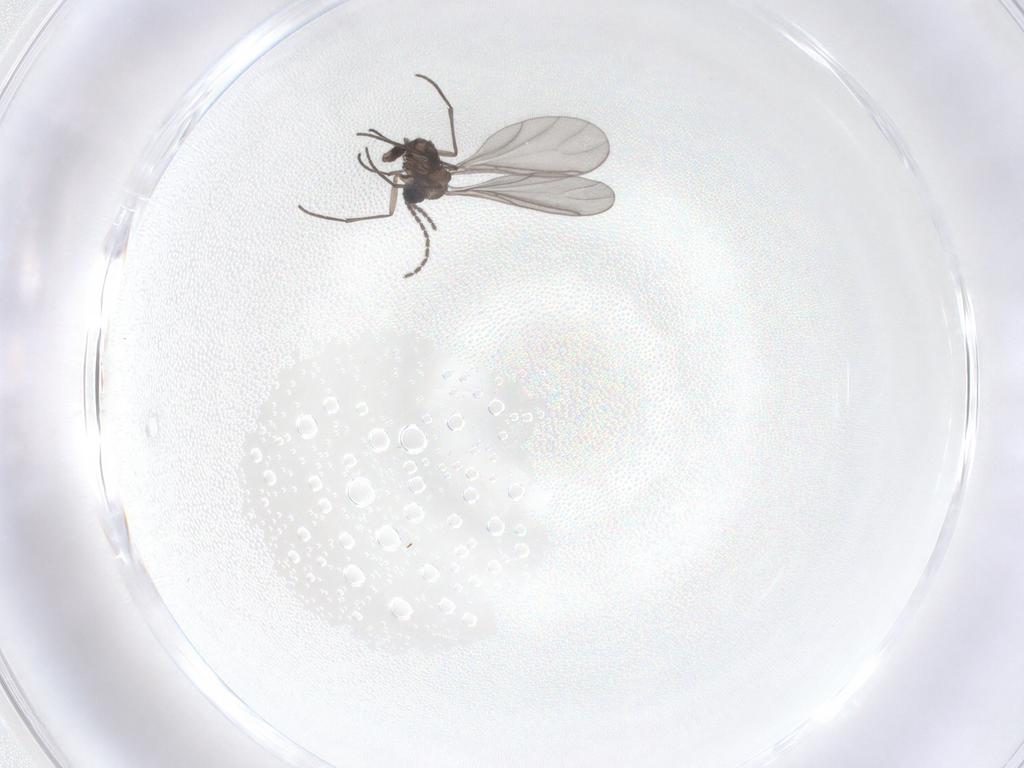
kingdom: Animalia
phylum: Arthropoda
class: Insecta
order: Diptera
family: Sciaridae
